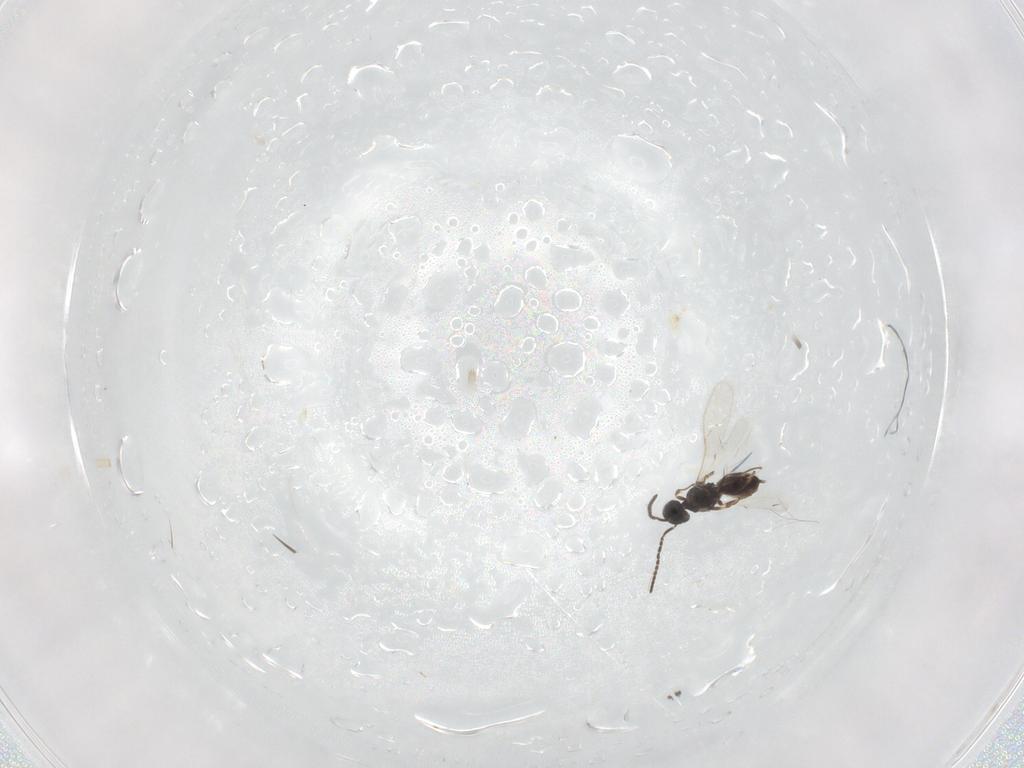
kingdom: Animalia
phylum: Arthropoda
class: Insecta
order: Hymenoptera
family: Scelionidae
